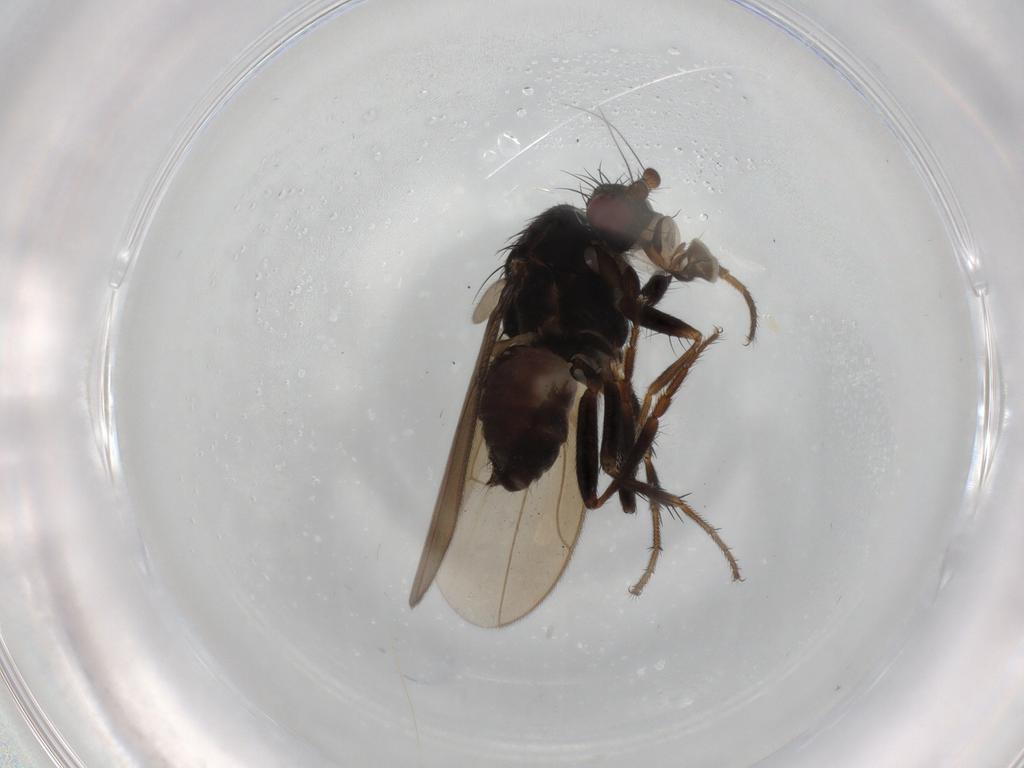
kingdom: Animalia
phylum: Arthropoda
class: Insecta
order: Diptera
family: Sphaeroceridae
